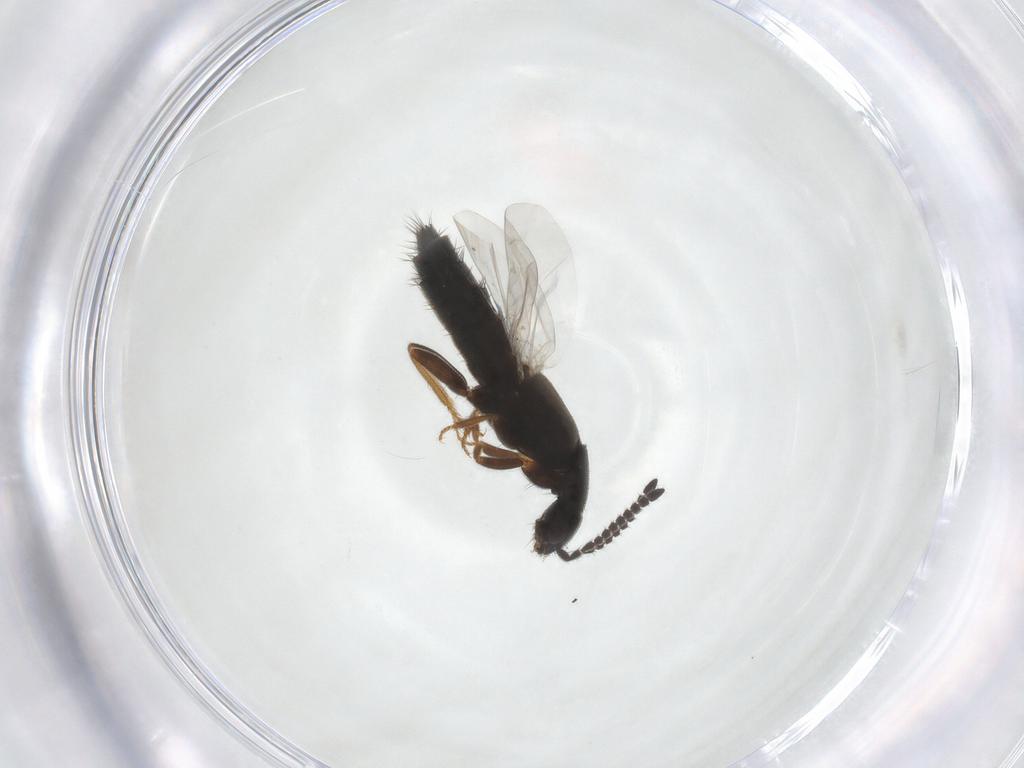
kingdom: Animalia
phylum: Arthropoda
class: Insecta
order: Coleoptera
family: Staphylinidae
